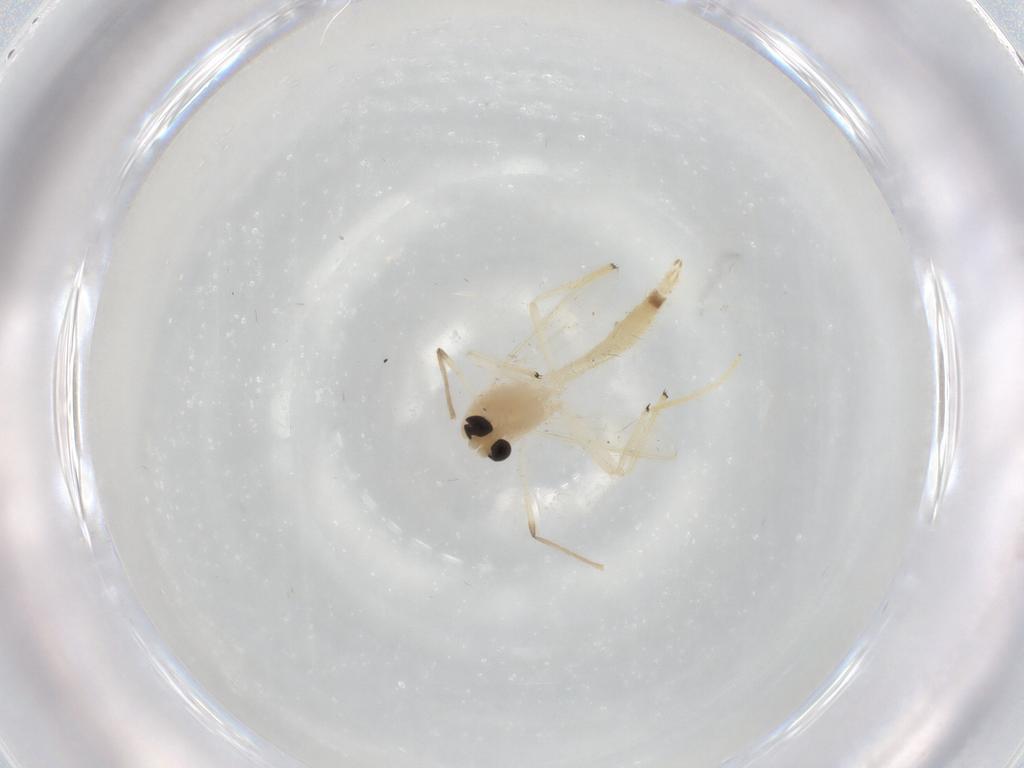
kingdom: Animalia
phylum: Arthropoda
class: Insecta
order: Diptera
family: Chironomidae
